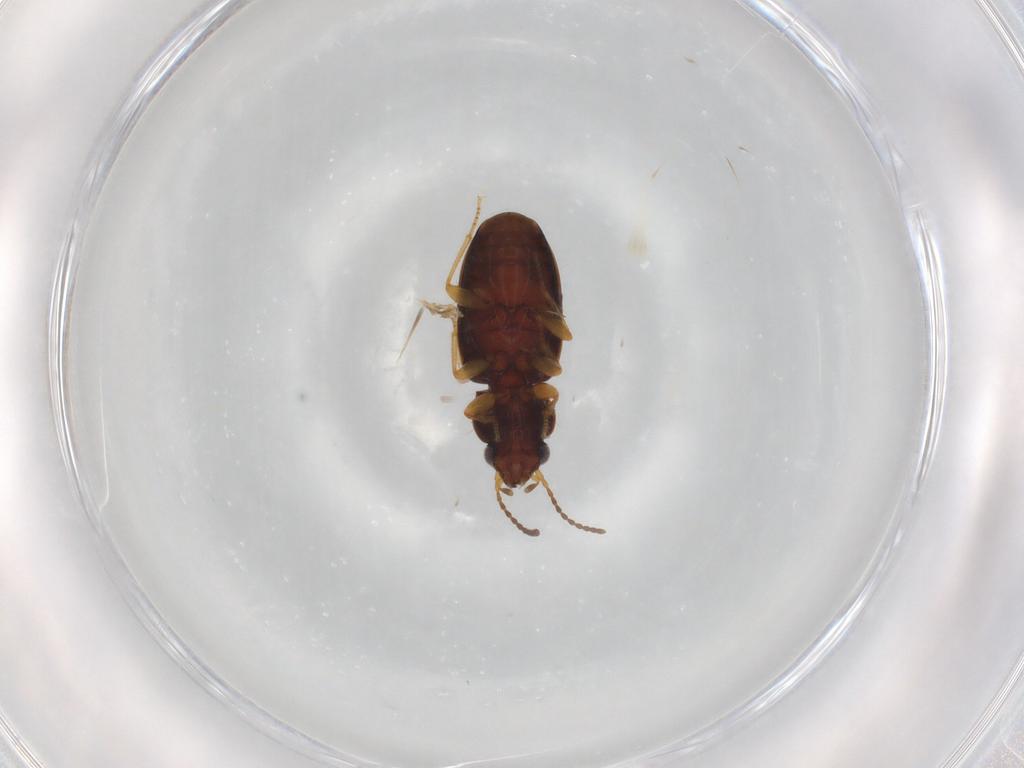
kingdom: Animalia
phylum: Arthropoda
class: Insecta
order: Coleoptera
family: Carabidae
